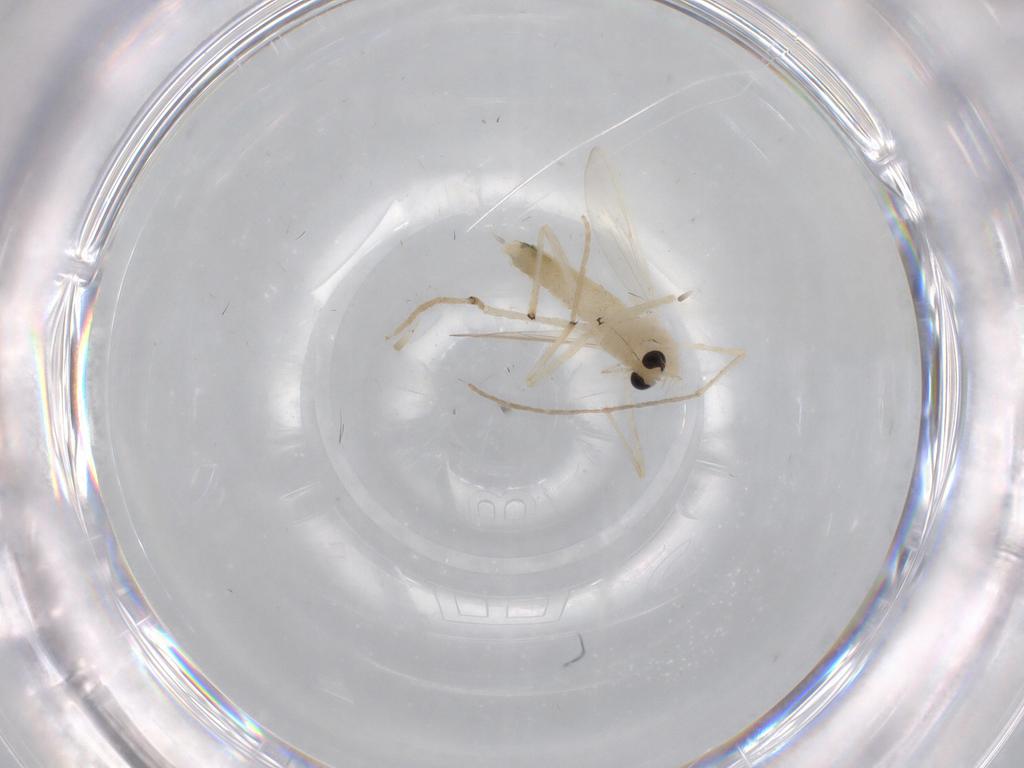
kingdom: Animalia
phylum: Arthropoda
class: Insecta
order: Diptera
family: Chironomidae
